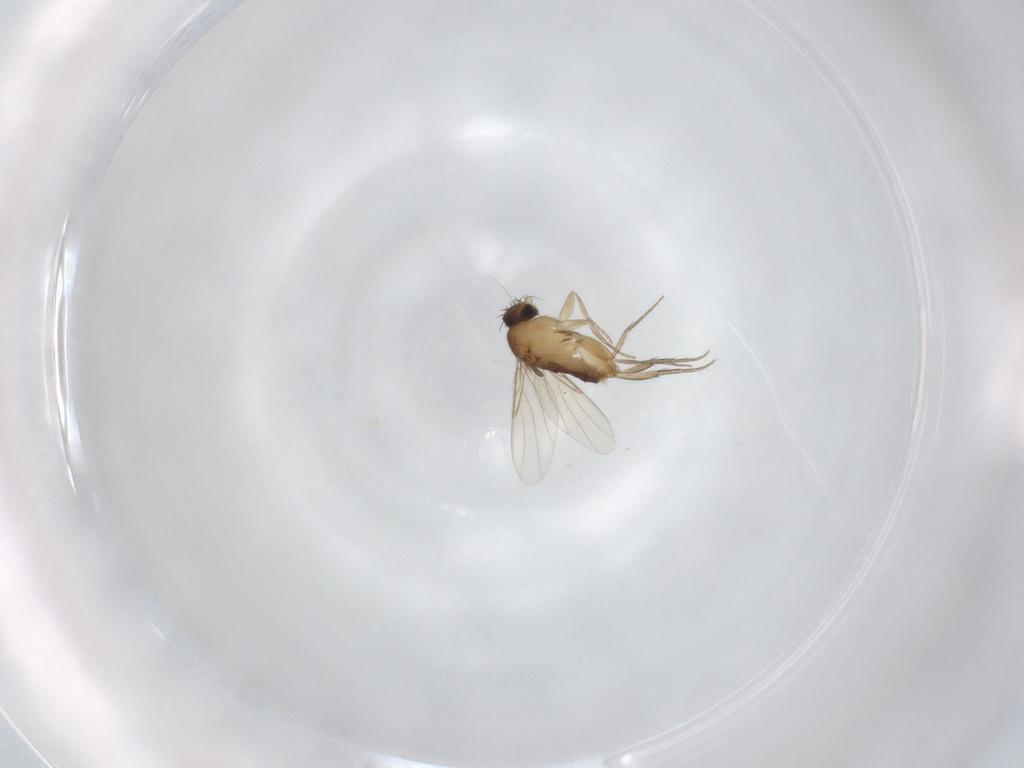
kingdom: Animalia
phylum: Arthropoda
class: Insecta
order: Diptera
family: Phoridae
